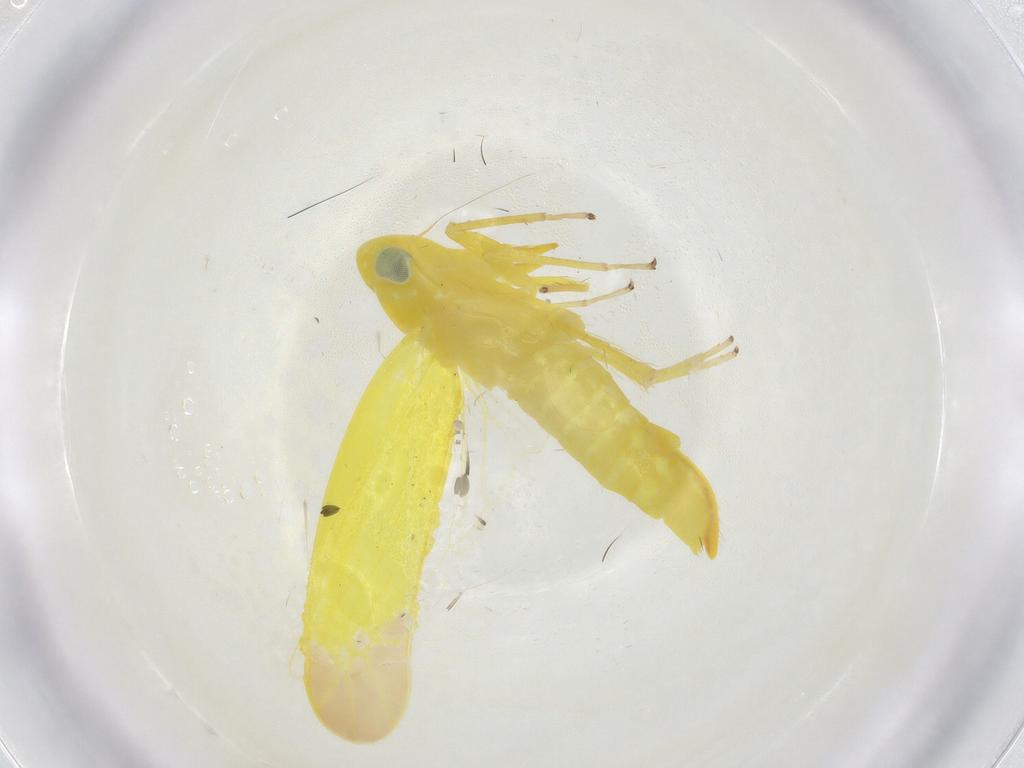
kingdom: Animalia
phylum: Arthropoda
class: Insecta
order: Hemiptera
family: Cicadellidae
